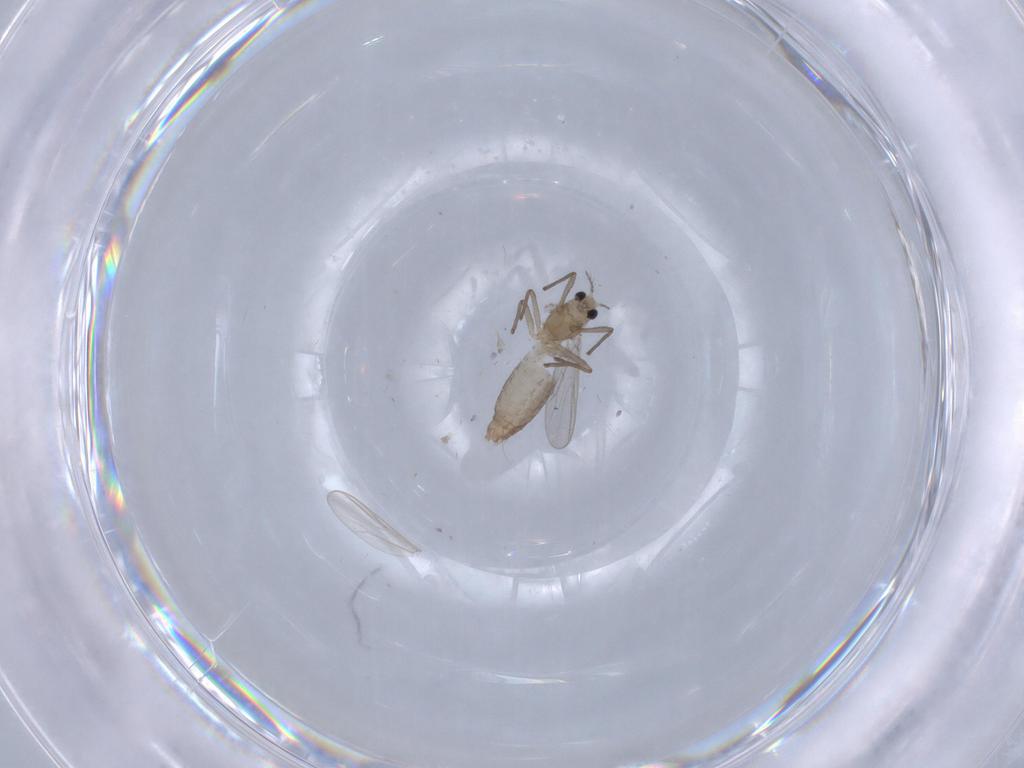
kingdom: Animalia
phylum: Arthropoda
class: Insecta
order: Diptera
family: Chironomidae
